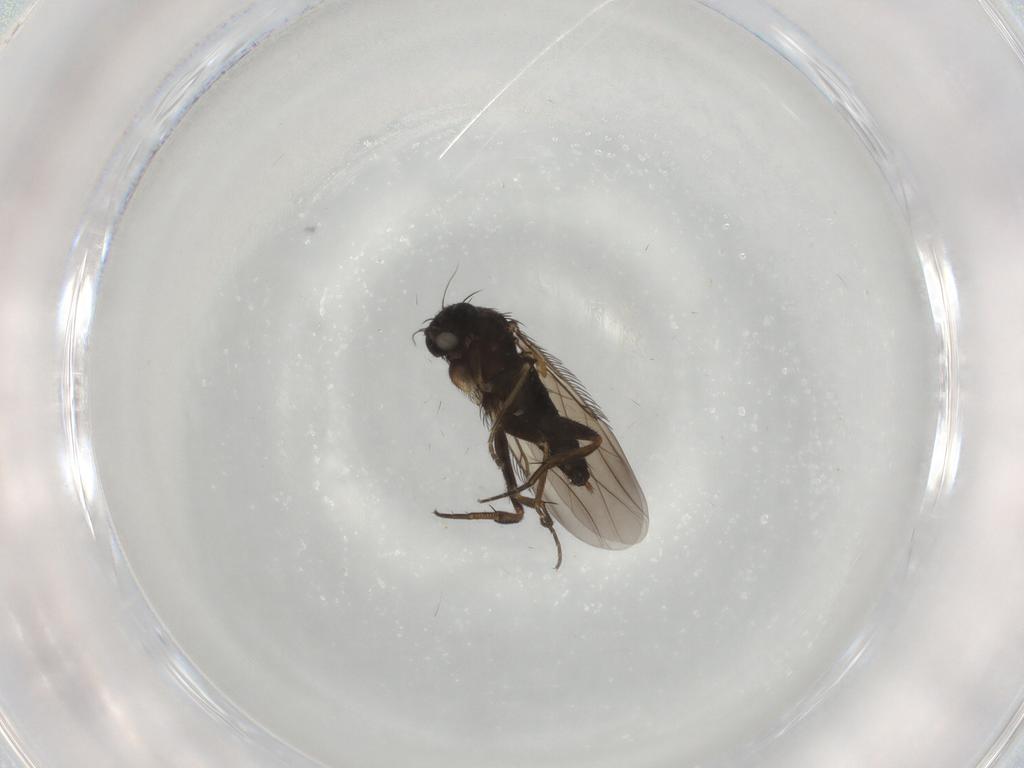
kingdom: Animalia
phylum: Arthropoda
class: Insecta
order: Diptera
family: Phoridae
